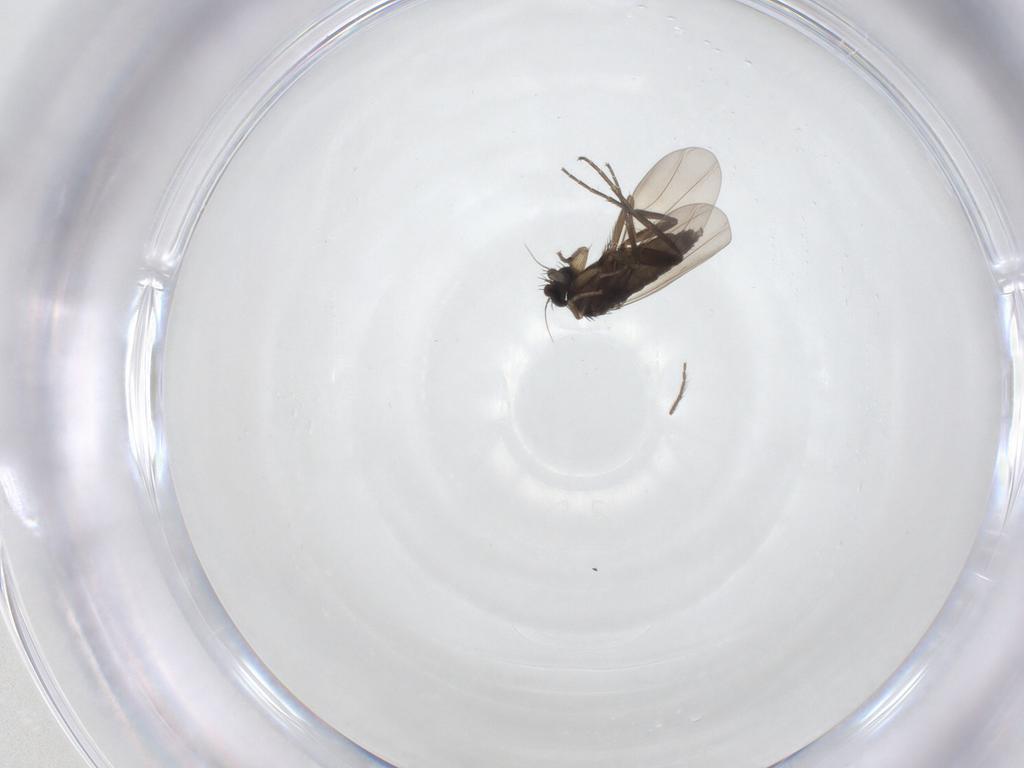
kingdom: Animalia
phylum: Arthropoda
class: Insecta
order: Diptera
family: Phoridae
